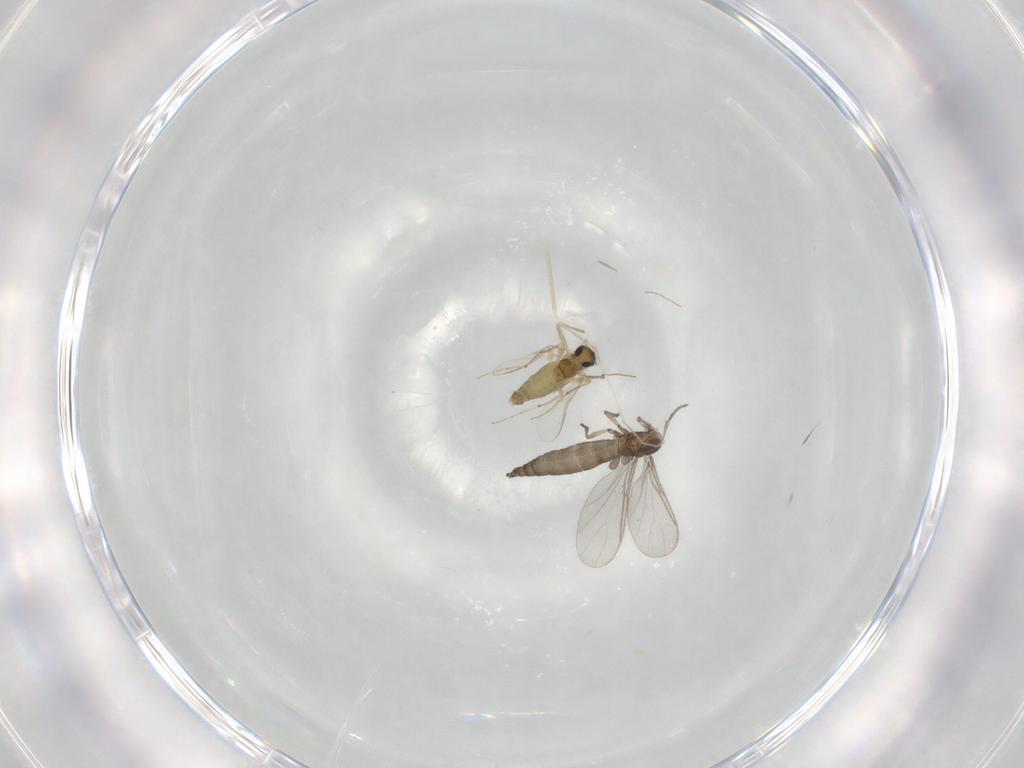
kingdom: Animalia
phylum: Arthropoda
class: Insecta
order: Diptera
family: Sciaridae
